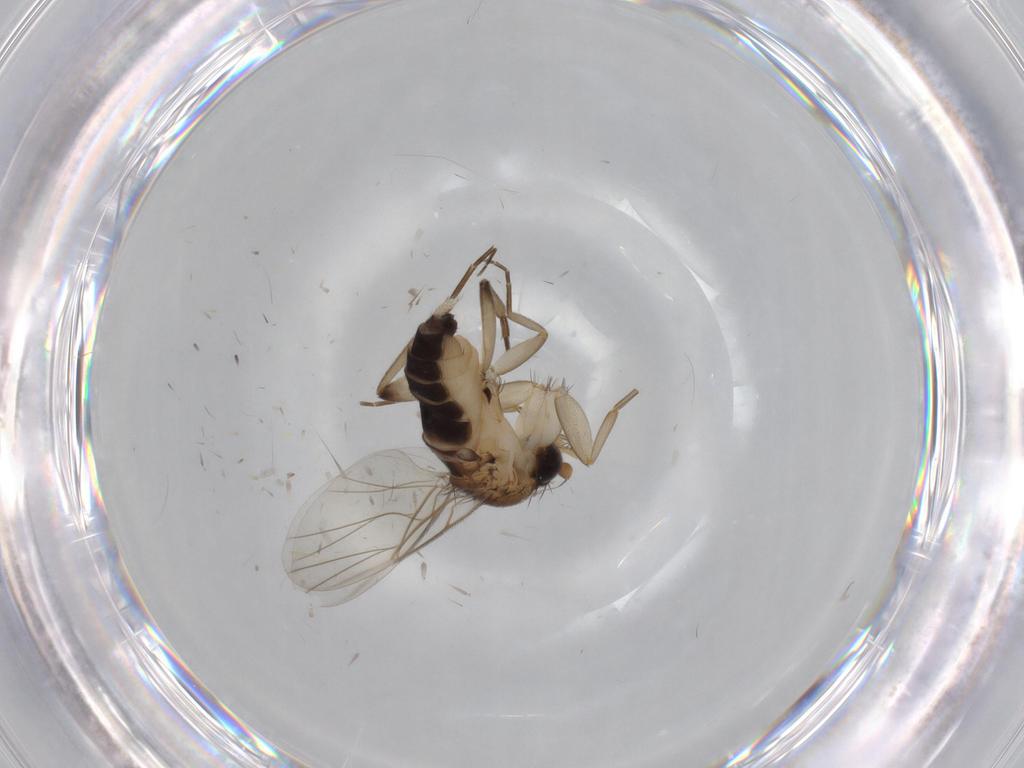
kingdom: Animalia
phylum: Arthropoda
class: Insecta
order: Diptera
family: Phoridae
